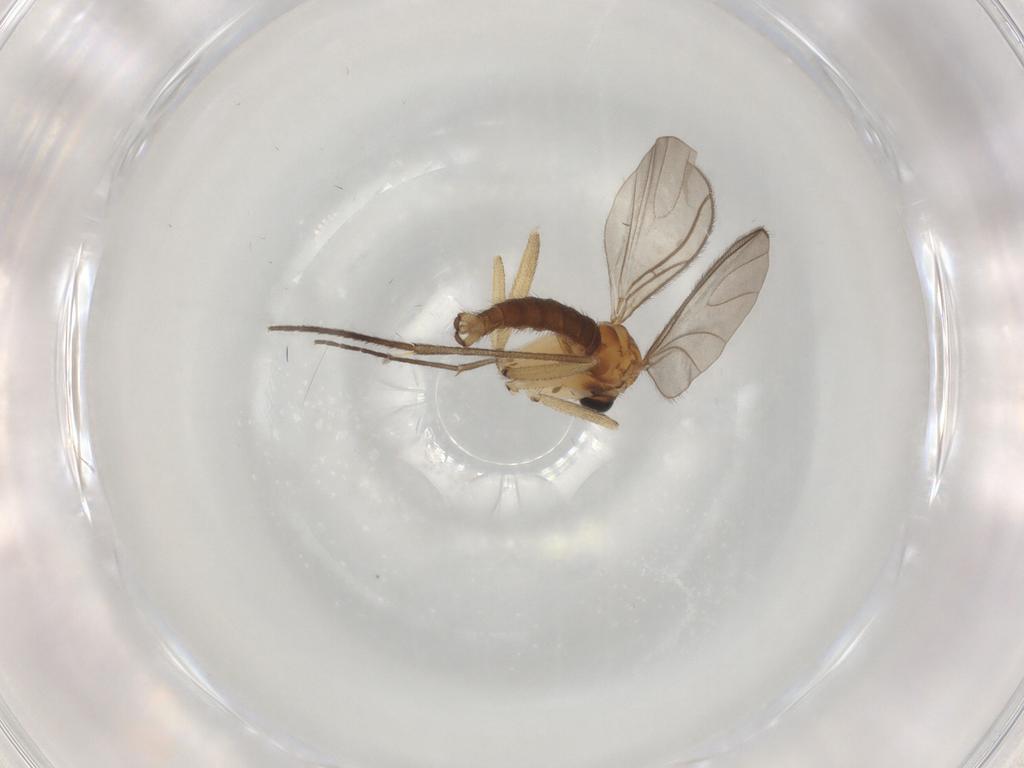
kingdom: Animalia
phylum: Arthropoda
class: Insecta
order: Diptera
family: Sciaridae
